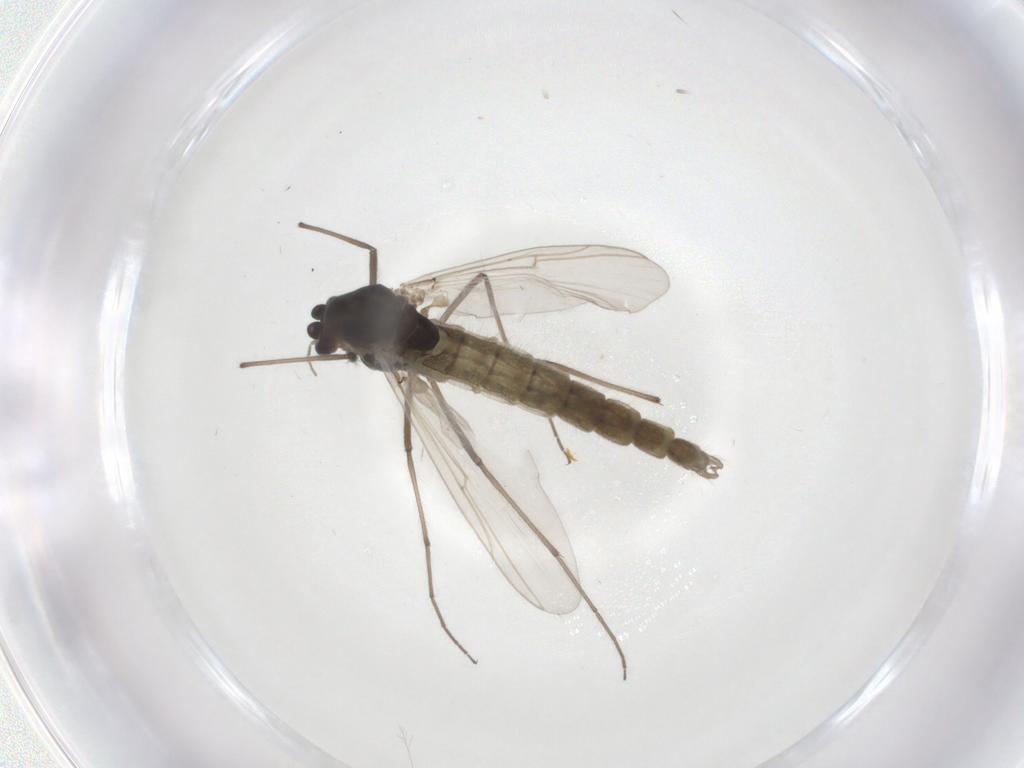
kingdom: Animalia
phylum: Arthropoda
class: Insecta
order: Diptera
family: Chironomidae
